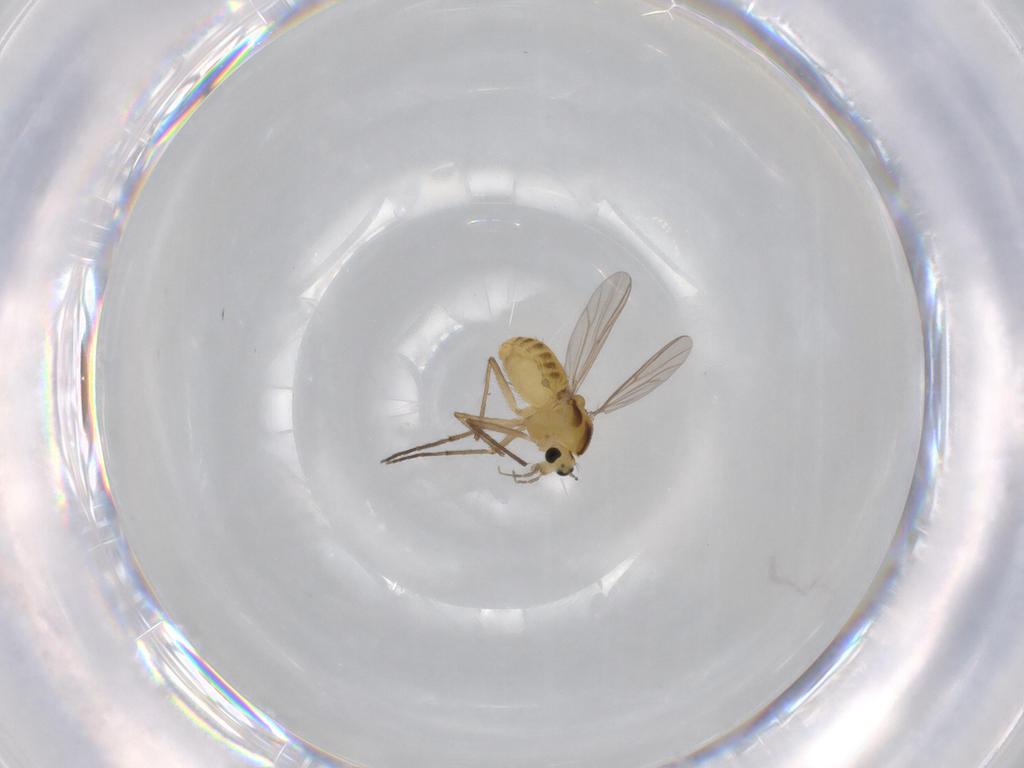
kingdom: Animalia
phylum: Arthropoda
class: Insecta
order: Diptera
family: Chironomidae
